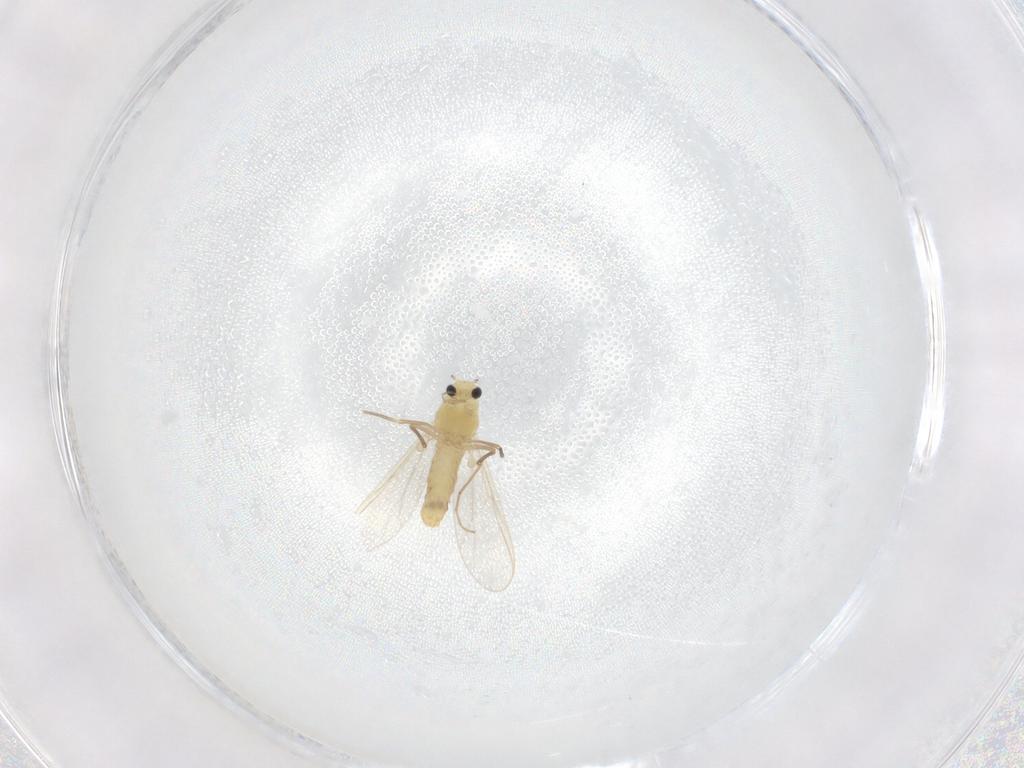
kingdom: Animalia
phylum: Arthropoda
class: Insecta
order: Diptera
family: Chironomidae
